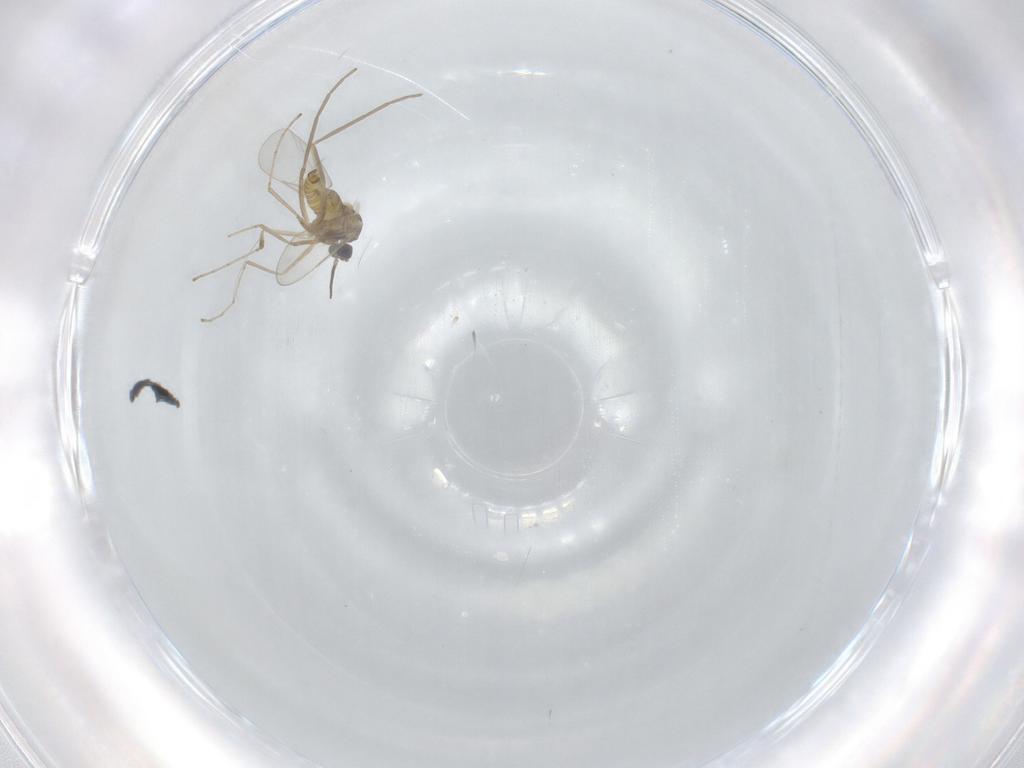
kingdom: Animalia
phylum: Arthropoda
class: Insecta
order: Diptera
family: Cecidomyiidae
